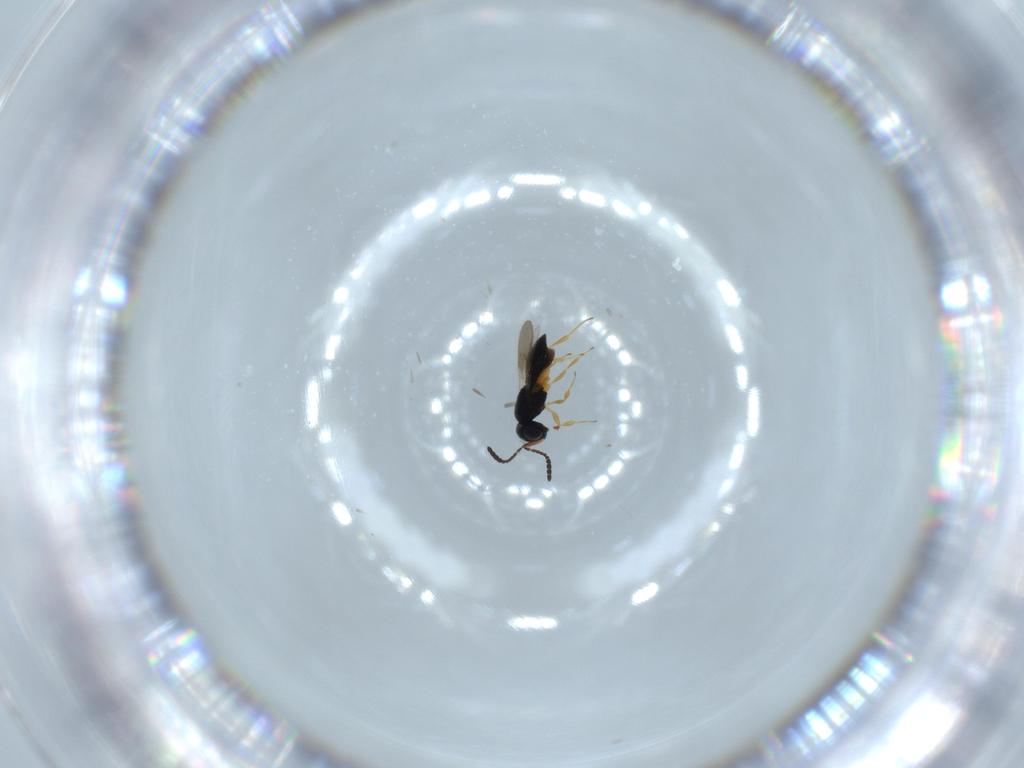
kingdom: Animalia
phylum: Arthropoda
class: Insecta
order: Hymenoptera
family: Scelionidae
